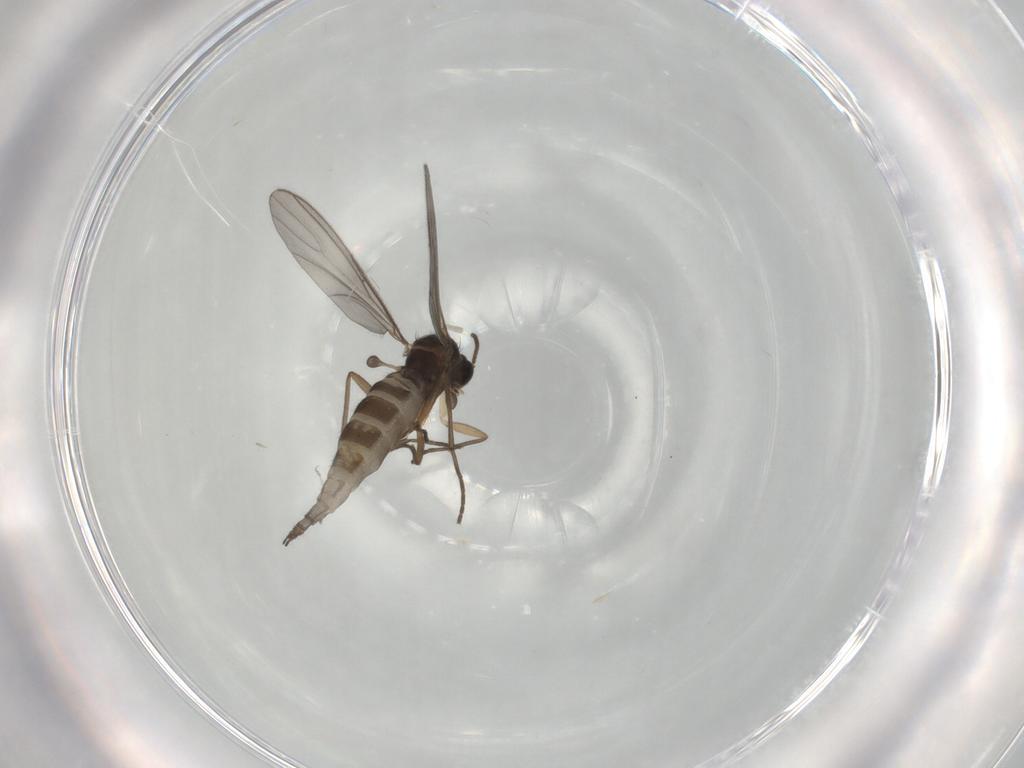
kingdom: Animalia
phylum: Arthropoda
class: Insecta
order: Diptera
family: Sciaridae
